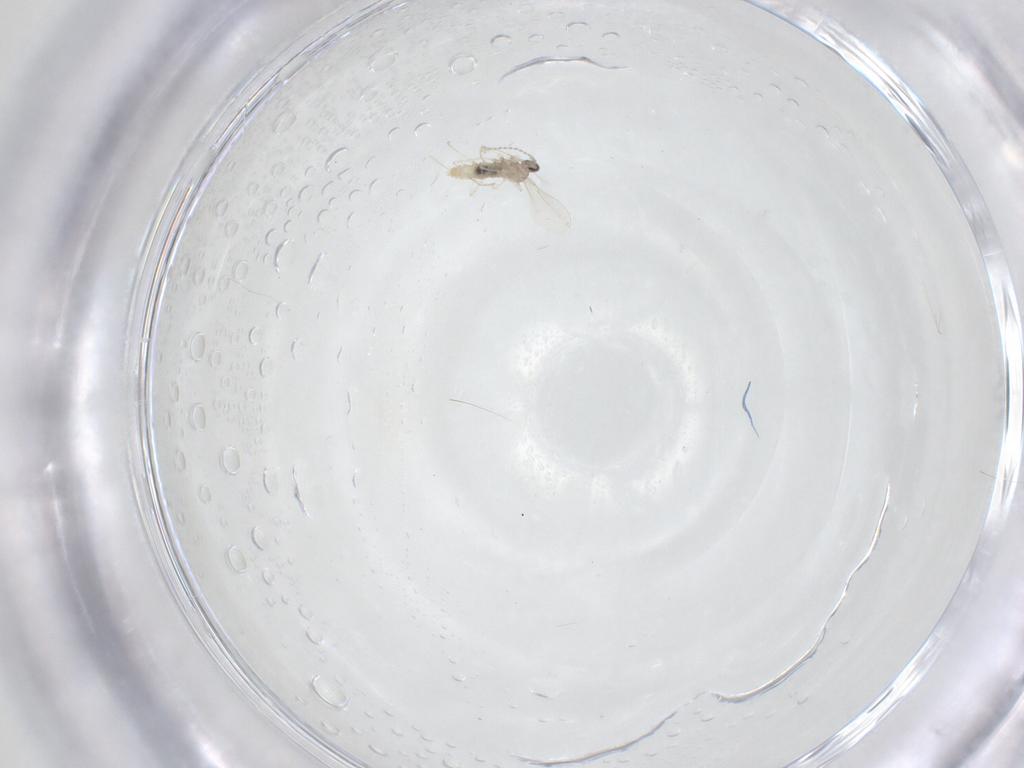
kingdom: Animalia
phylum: Arthropoda
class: Insecta
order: Diptera
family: Cecidomyiidae
